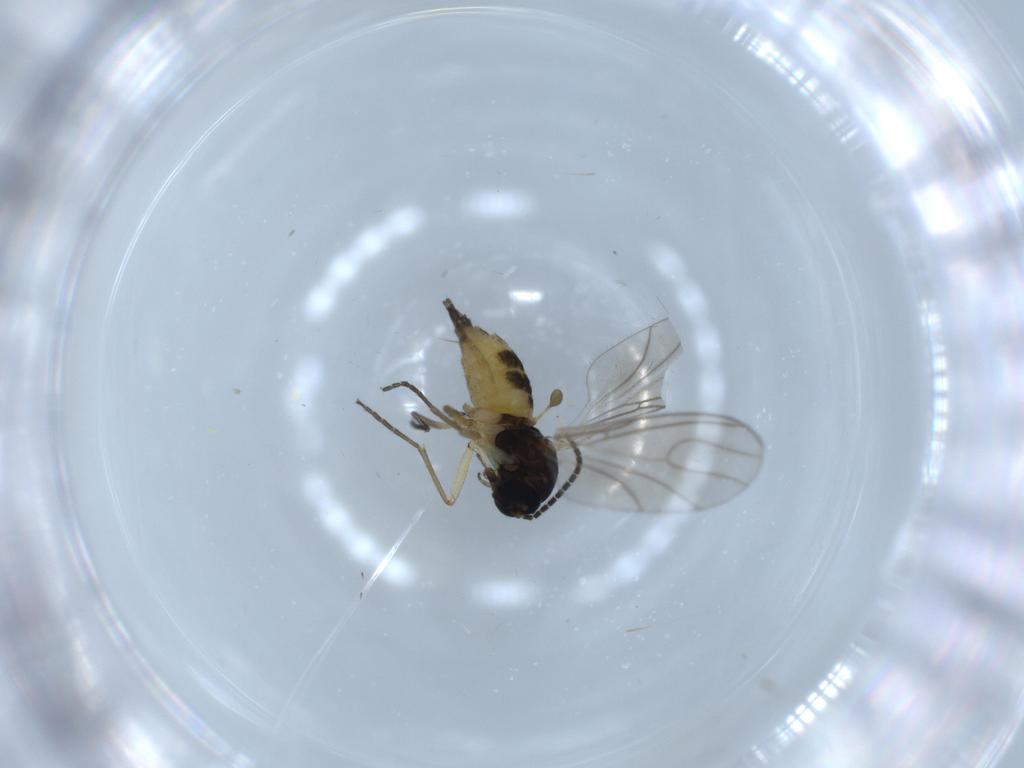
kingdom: Animalia
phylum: Arthropoda
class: Insecta
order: Diptera
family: Sciaridae
